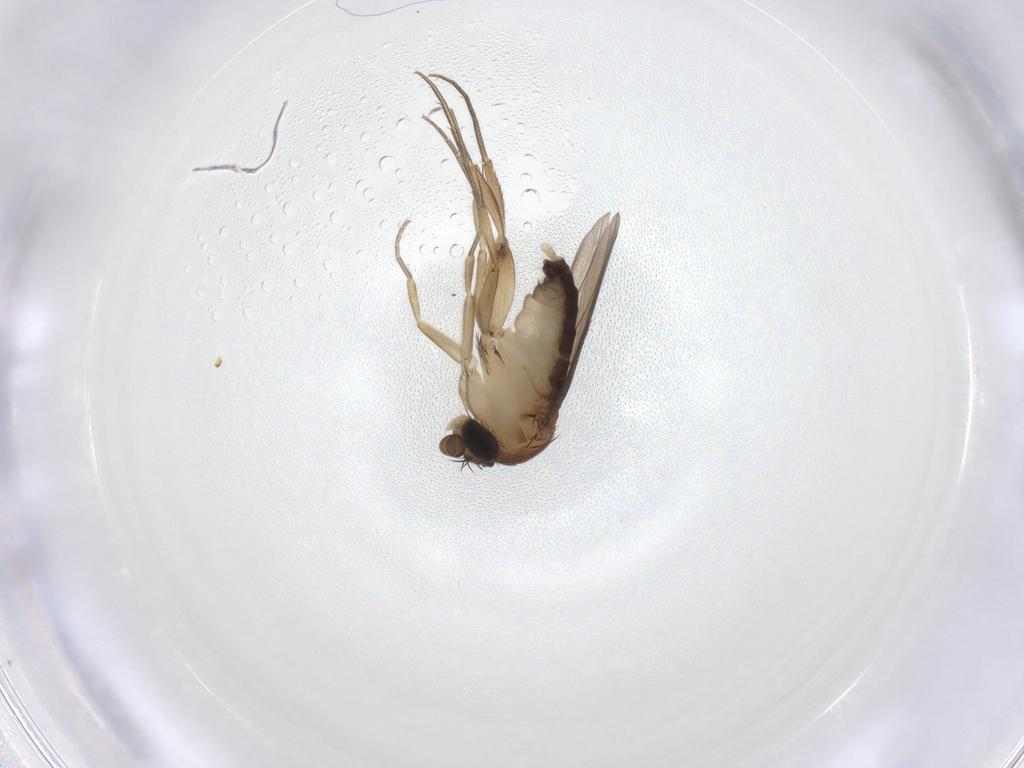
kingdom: Animalia
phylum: Arthropoda
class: Insecta
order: Diptera
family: Phoridae
